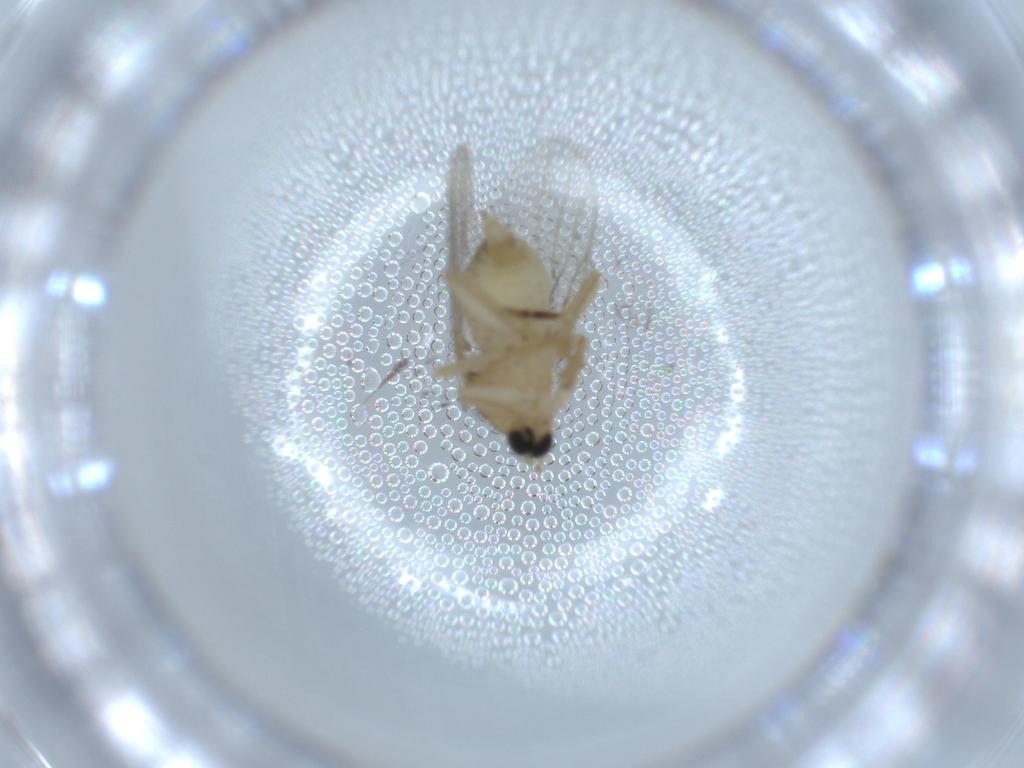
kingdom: Animalia
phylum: Arthropoda
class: Insecta
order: Diptera
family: Hybotidae
